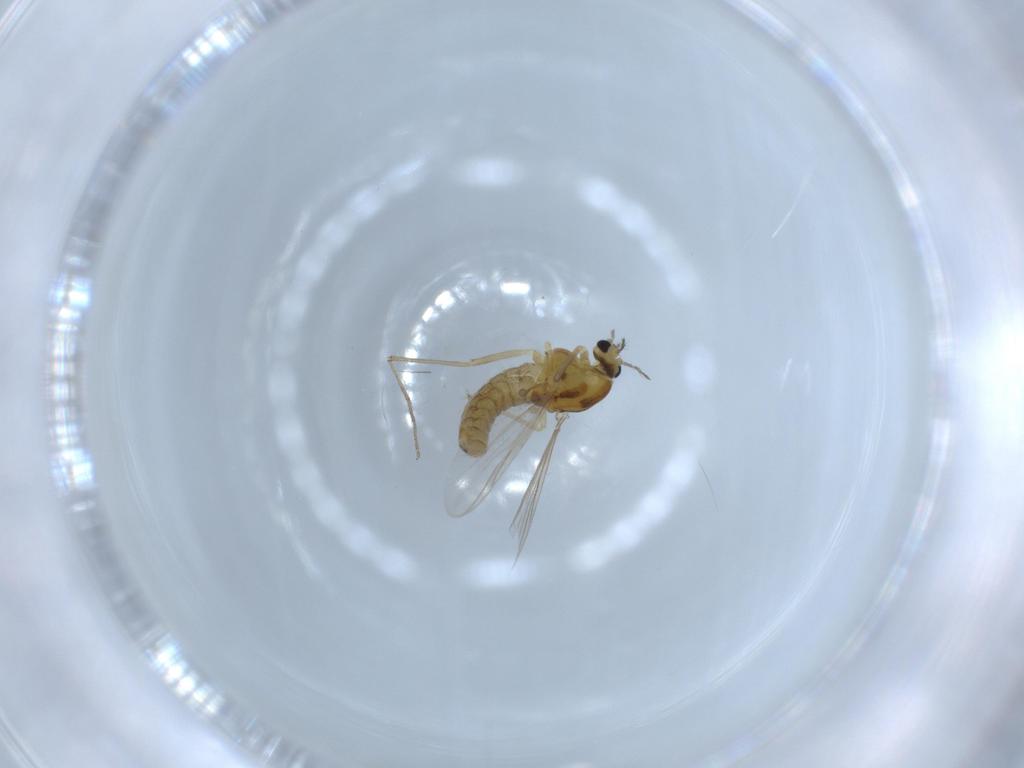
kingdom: Animalia
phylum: Arthropoda
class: Insecta
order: Diptera
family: Chironomidae
